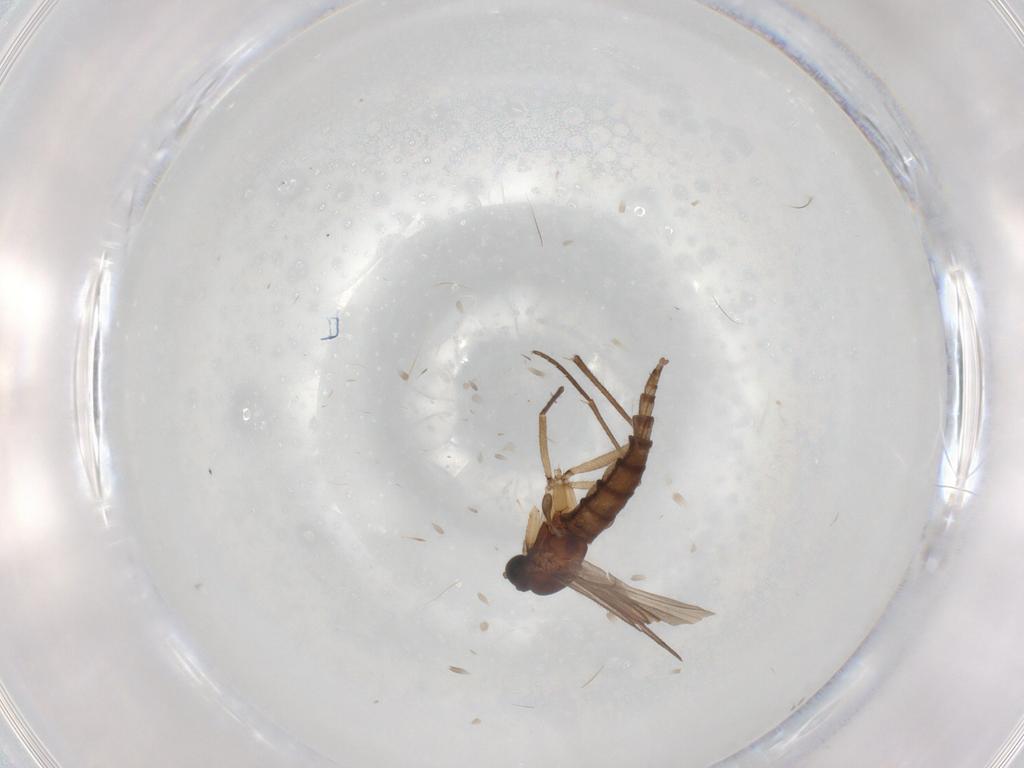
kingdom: Animalia
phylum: Arthropoda
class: Insecta
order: Diptera
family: Sciaridae
